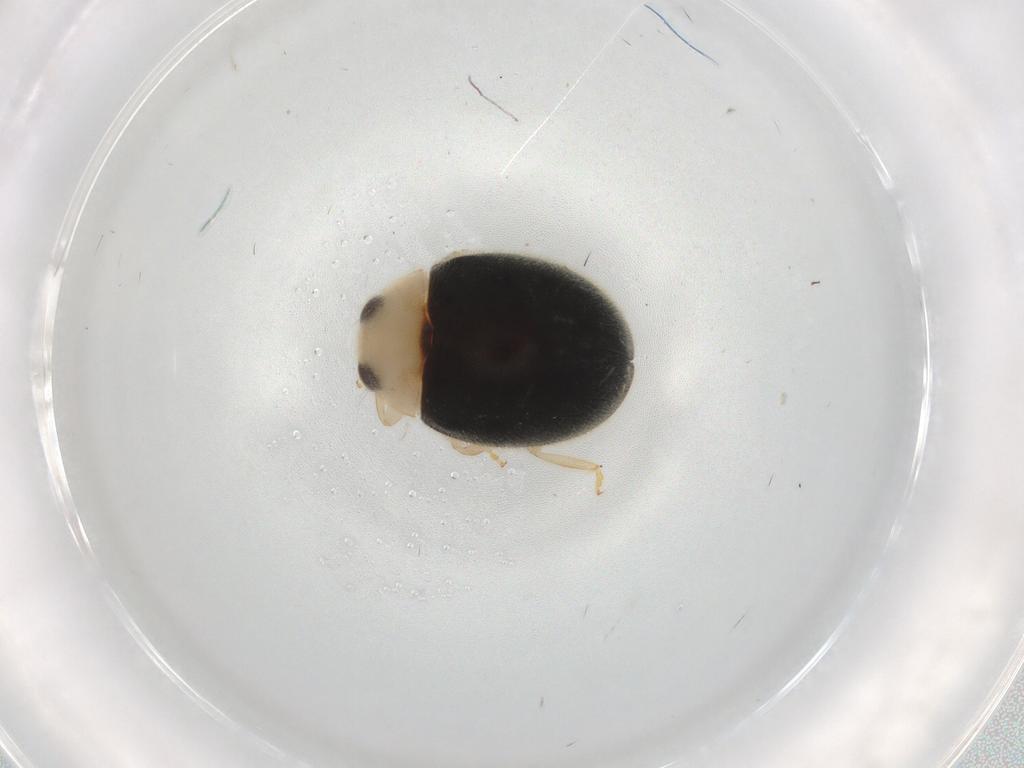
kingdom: Animalia
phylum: Arthropoda
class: Insecta
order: Coleoptera
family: Coccinellidae
